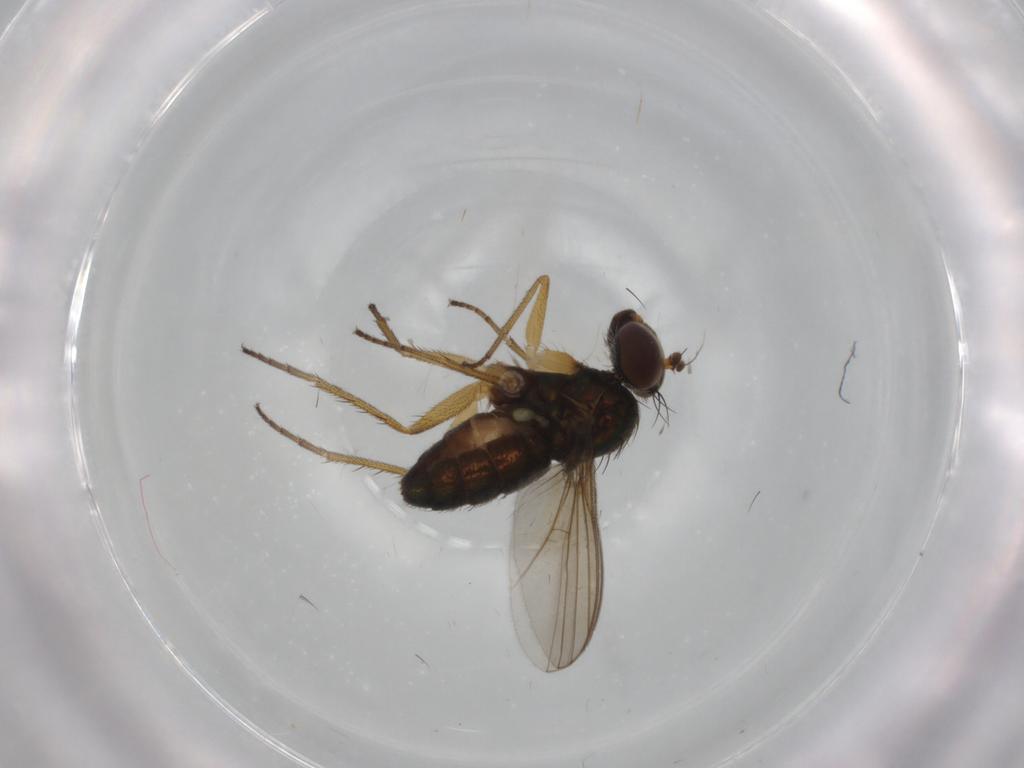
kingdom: Animalia
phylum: Arthropoda
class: Insecta
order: Diptera
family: Dolichopodidae
